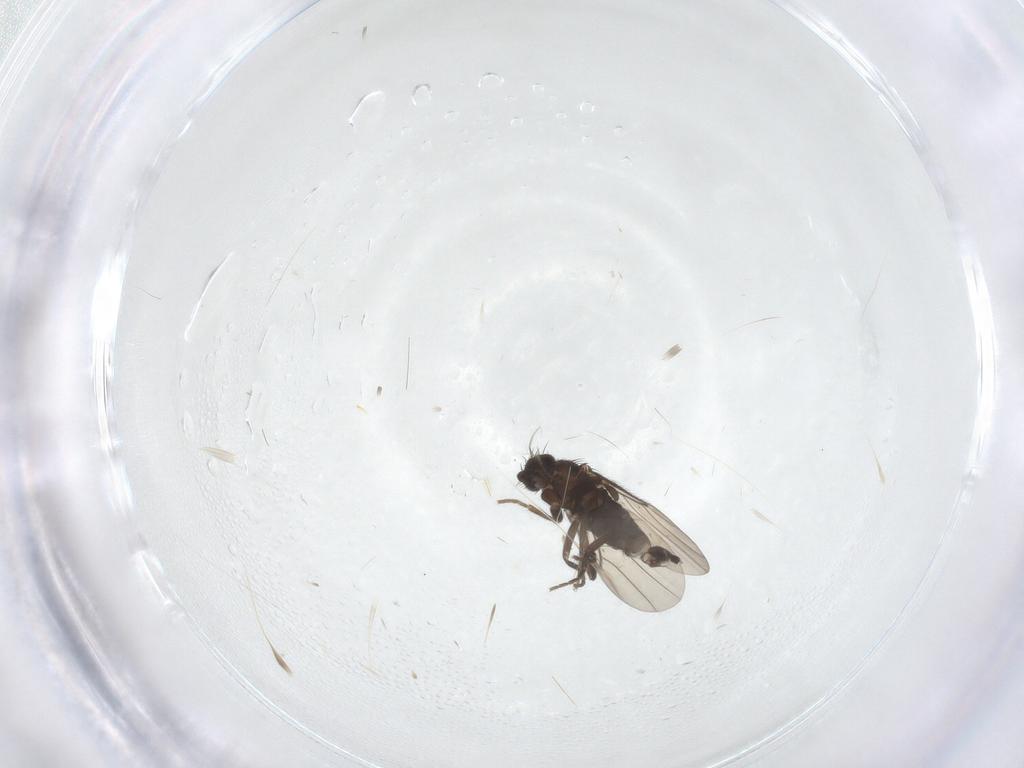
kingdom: Animalia
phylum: Arthropoda
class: Insecta
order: Diptera
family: Phoridae
